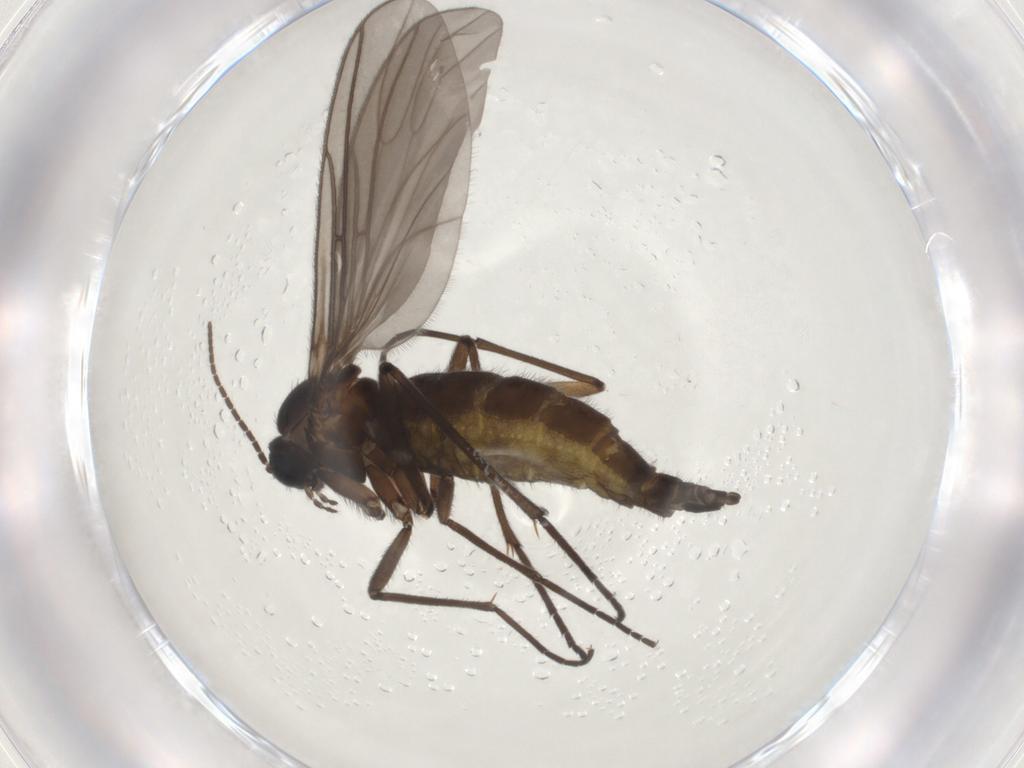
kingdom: Animalia
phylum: Arthropoda
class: Insecta
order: Diptera
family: Sciaridae
